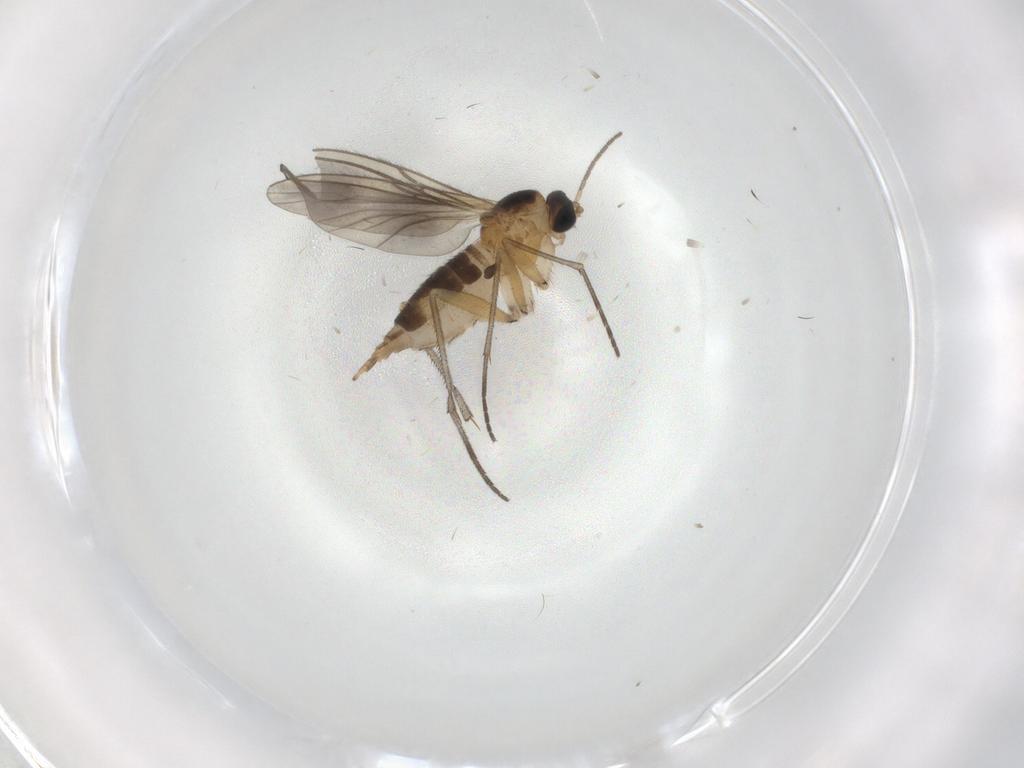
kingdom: Animalia
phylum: Arthropoda
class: Insecta
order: Diptera
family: Sciaridae
